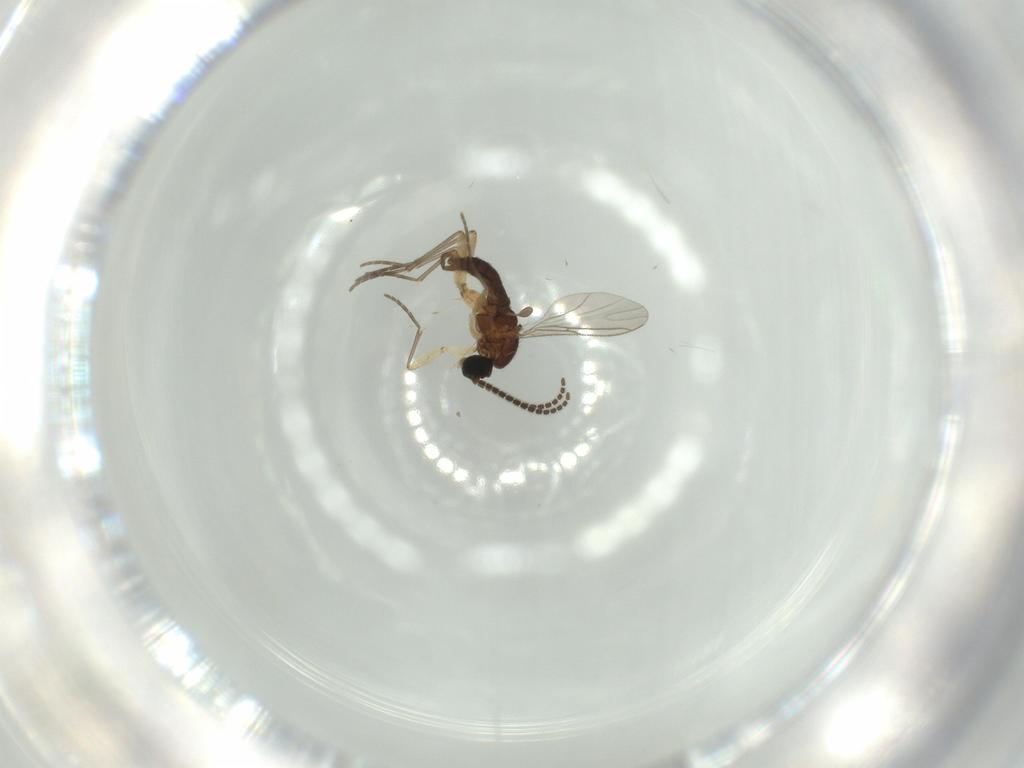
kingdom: Animalia
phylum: Arthropoda
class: Insecta
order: Diptera
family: Sciaridae
